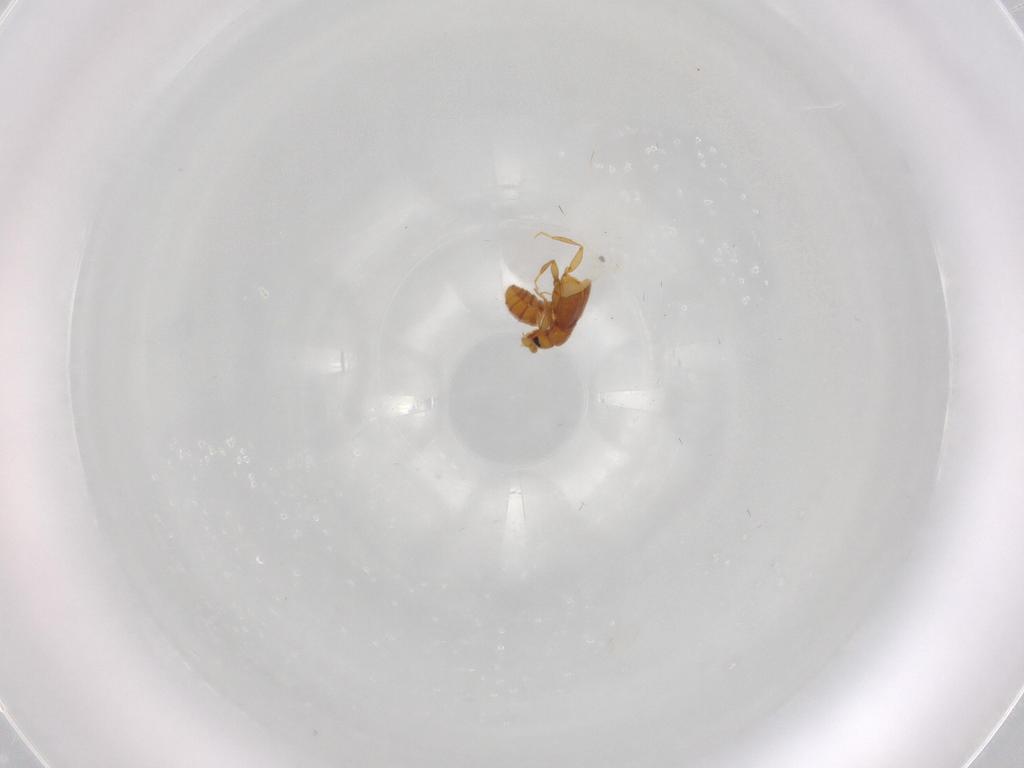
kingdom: Animalia
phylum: Arthropoda
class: Insecta
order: Coleoptera
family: Staphylinidae
